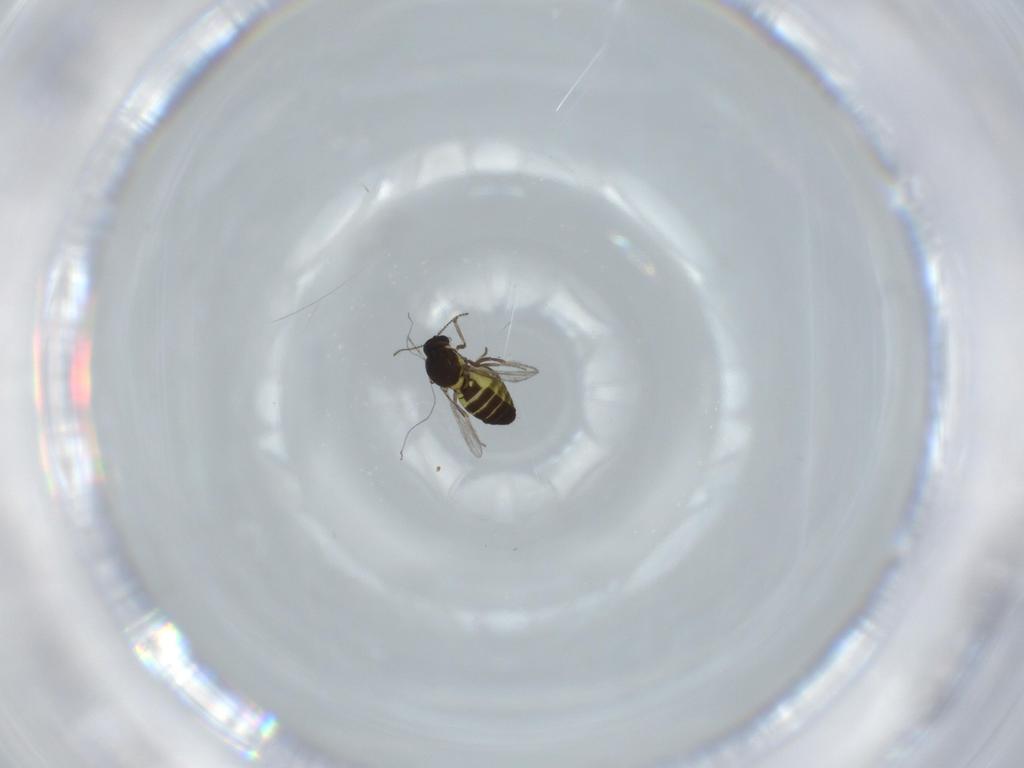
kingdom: Animalia
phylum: Arthropoda
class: Insecta
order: Diptera
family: Ceratopogonidae
